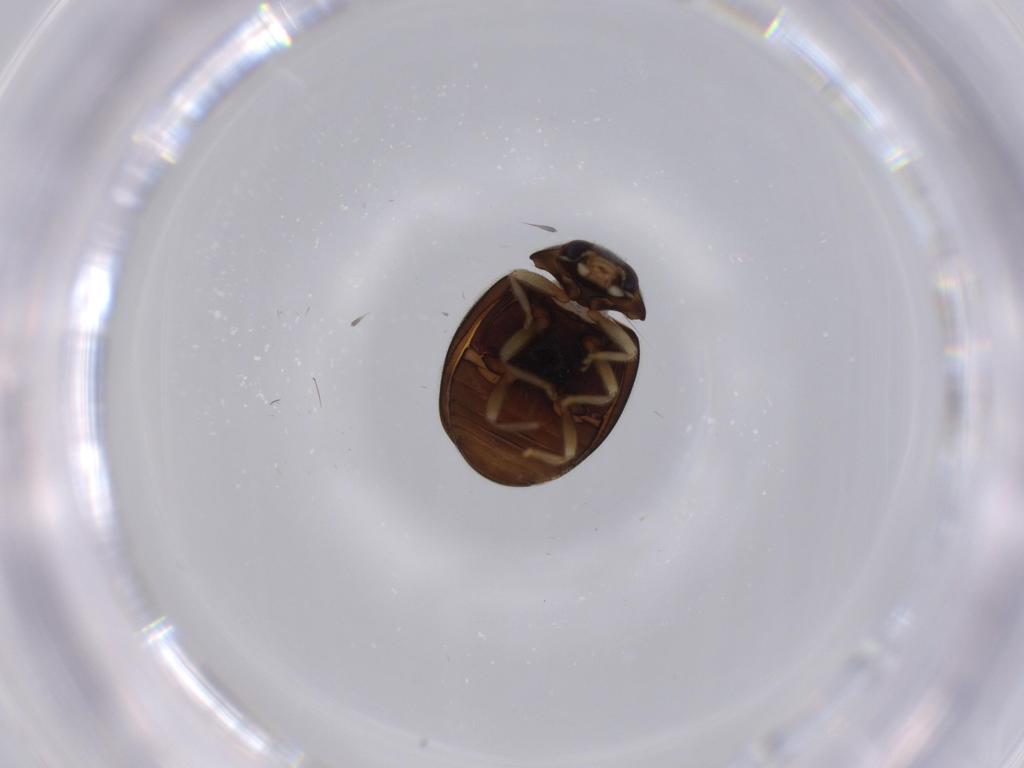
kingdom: Animalia
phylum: Arthropoda
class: Insecta
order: Coleoptera
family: Coccinellidae
